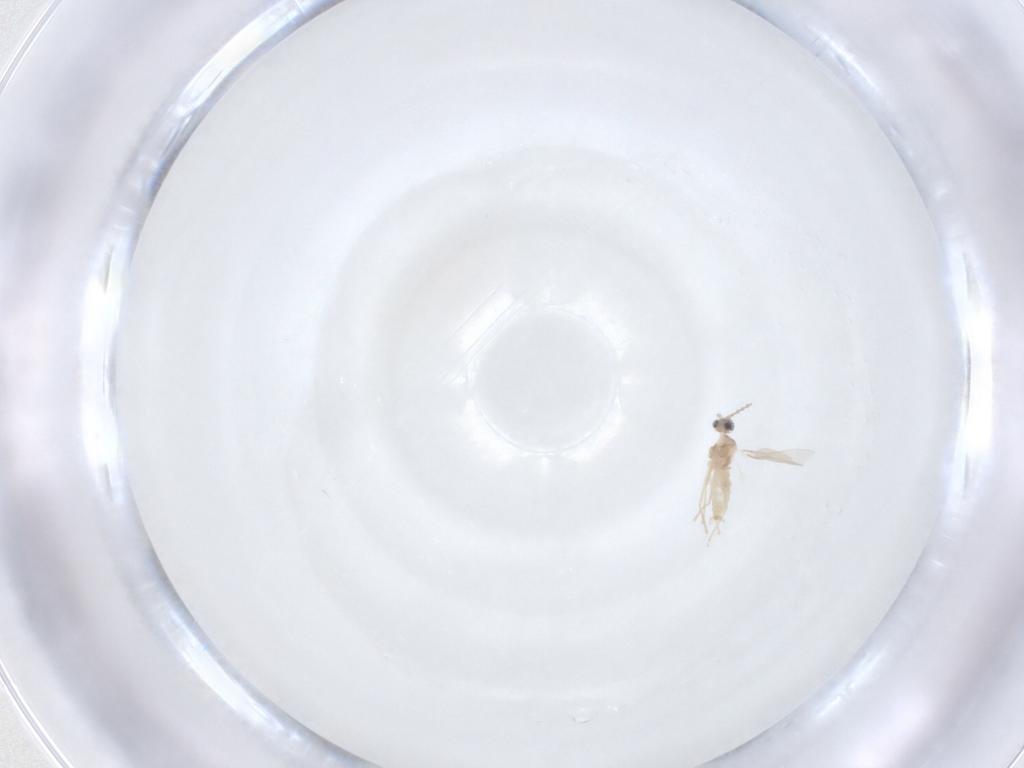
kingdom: Animalia
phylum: Arthropoda
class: Insecta
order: Diptera
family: Cecidomyiidae
